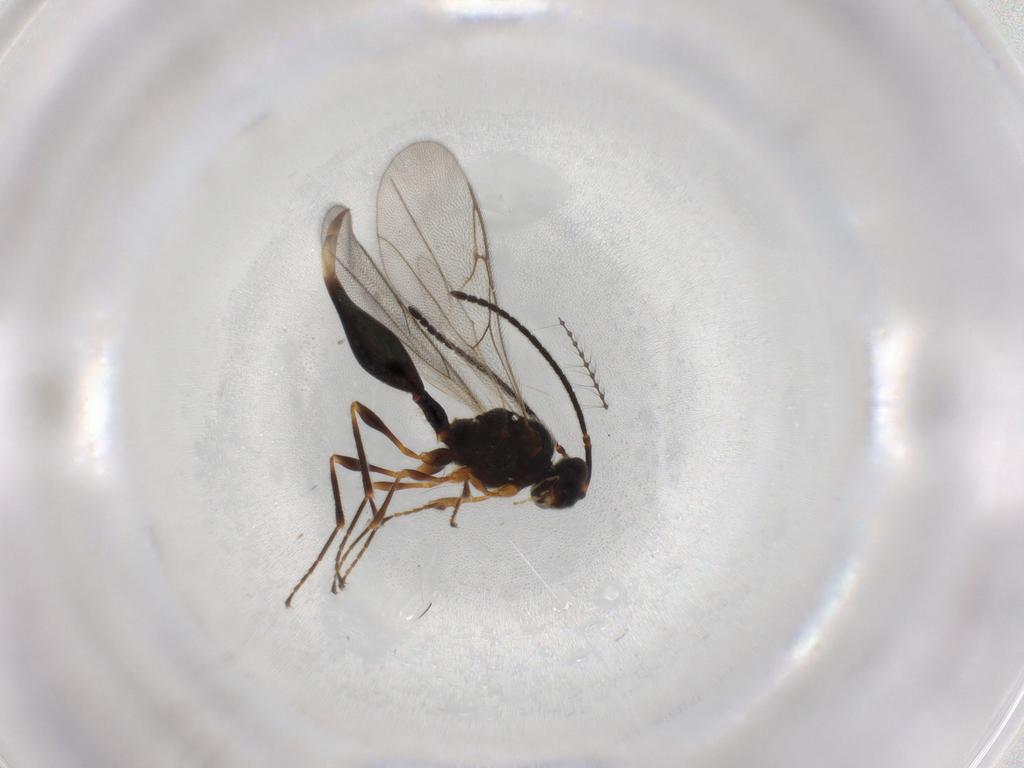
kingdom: Animalia
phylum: Arthropoda
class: Insecta
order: Hymenoptera
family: Diapriidae
